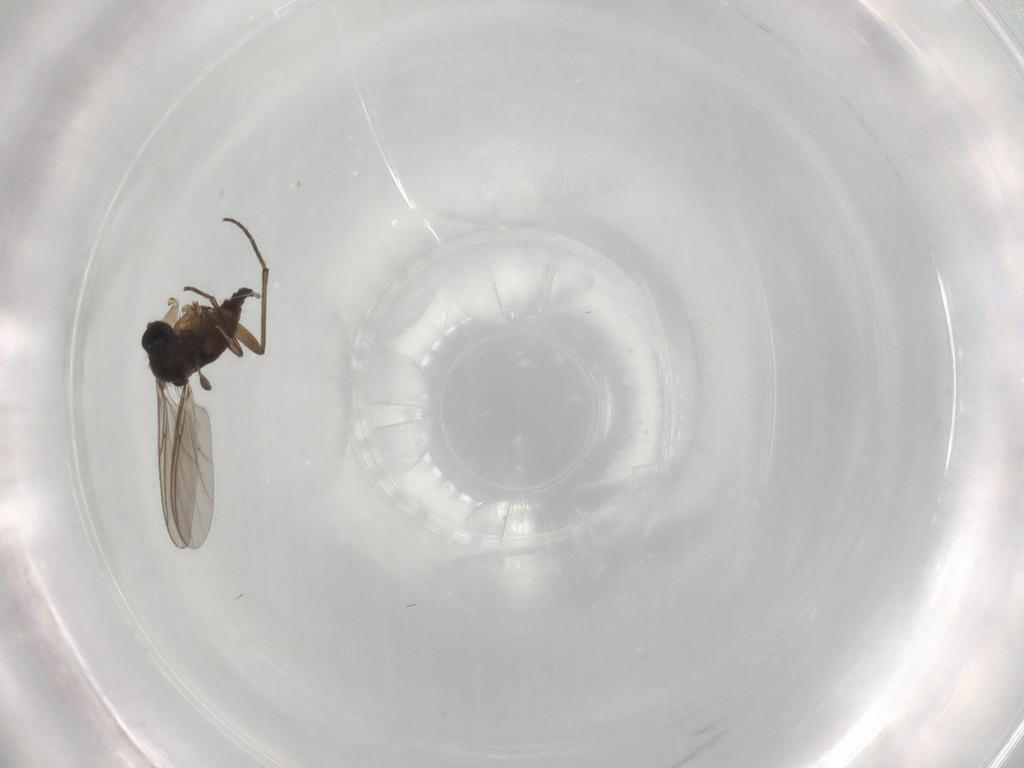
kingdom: Animalia
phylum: Arthropoda
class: Insecta
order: Diptera
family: Sciaridae
